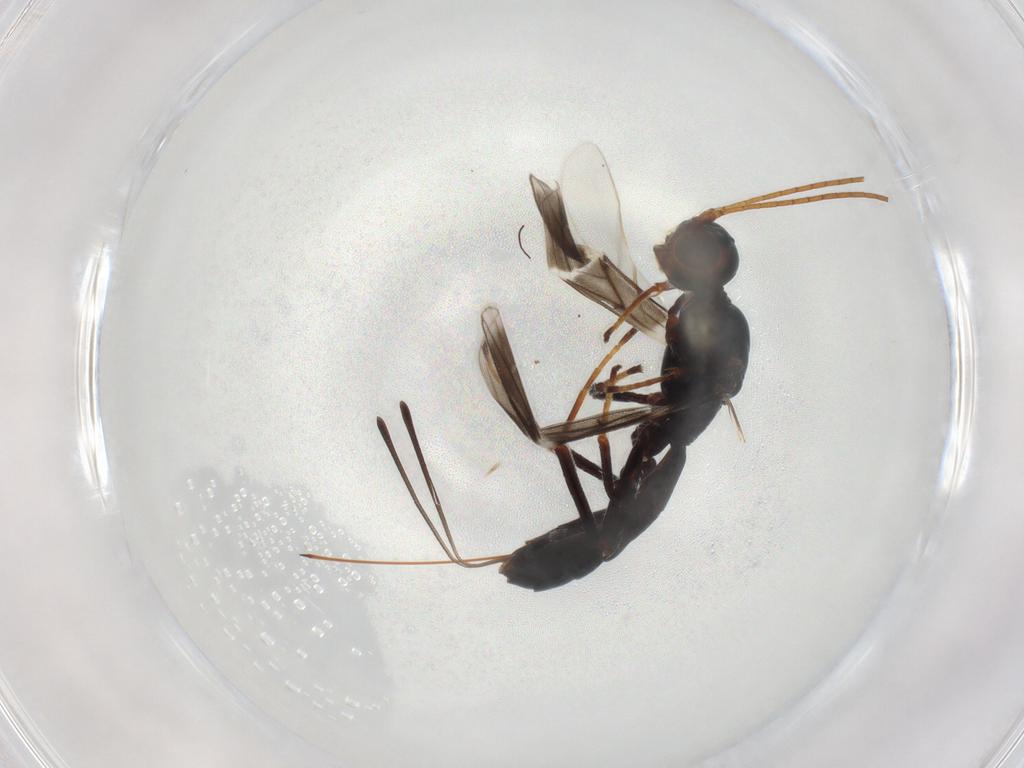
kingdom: Animalia
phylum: Arthropoda
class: Insecta
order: Hymenoptera
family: Braconidae
